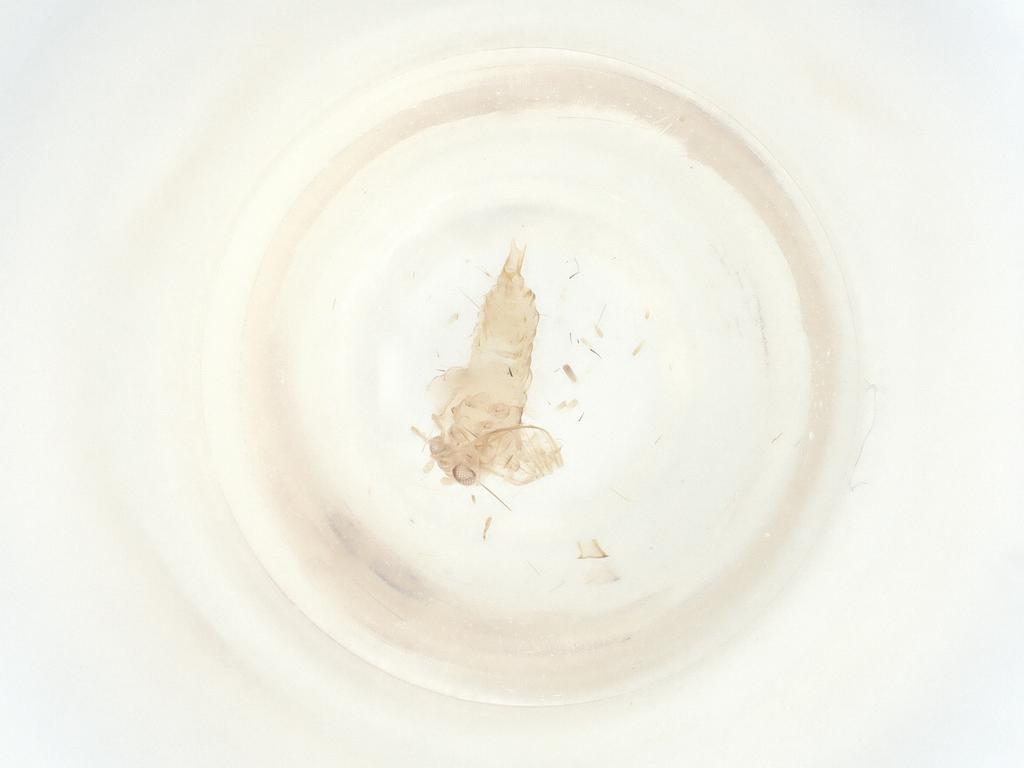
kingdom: Animalia
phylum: Arthropoda
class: Insecta
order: Diptera
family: Psychodidae
